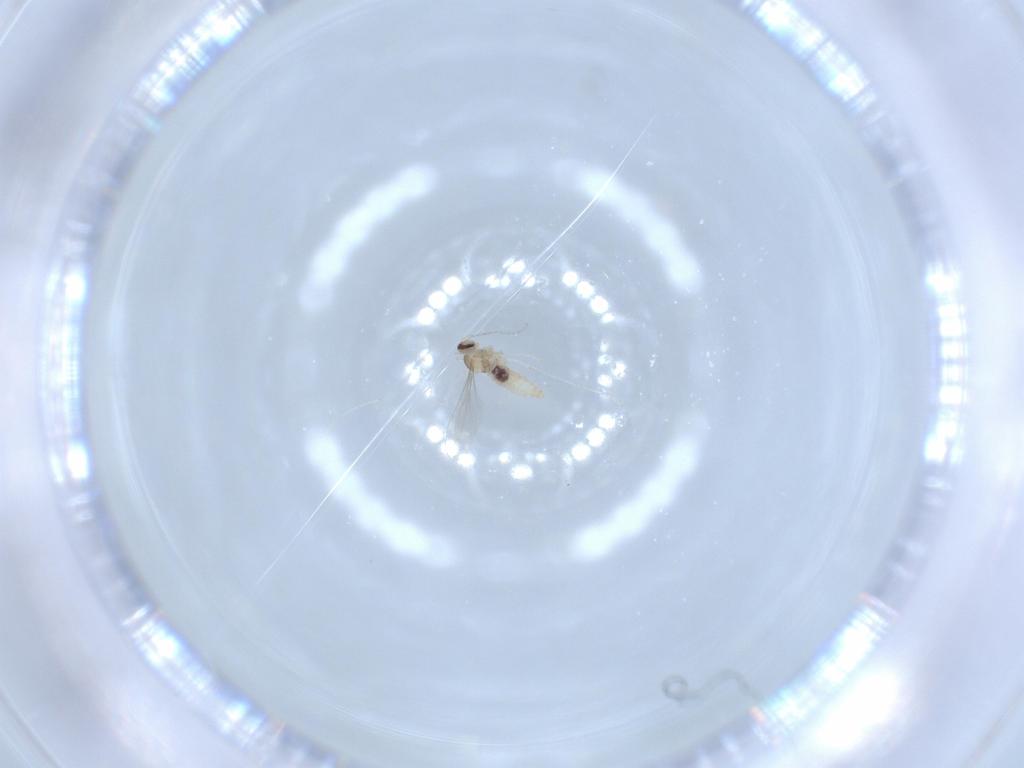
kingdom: Animalia
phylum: Arthropoda
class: Insecta
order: Diptera
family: Cecidomyiidae
